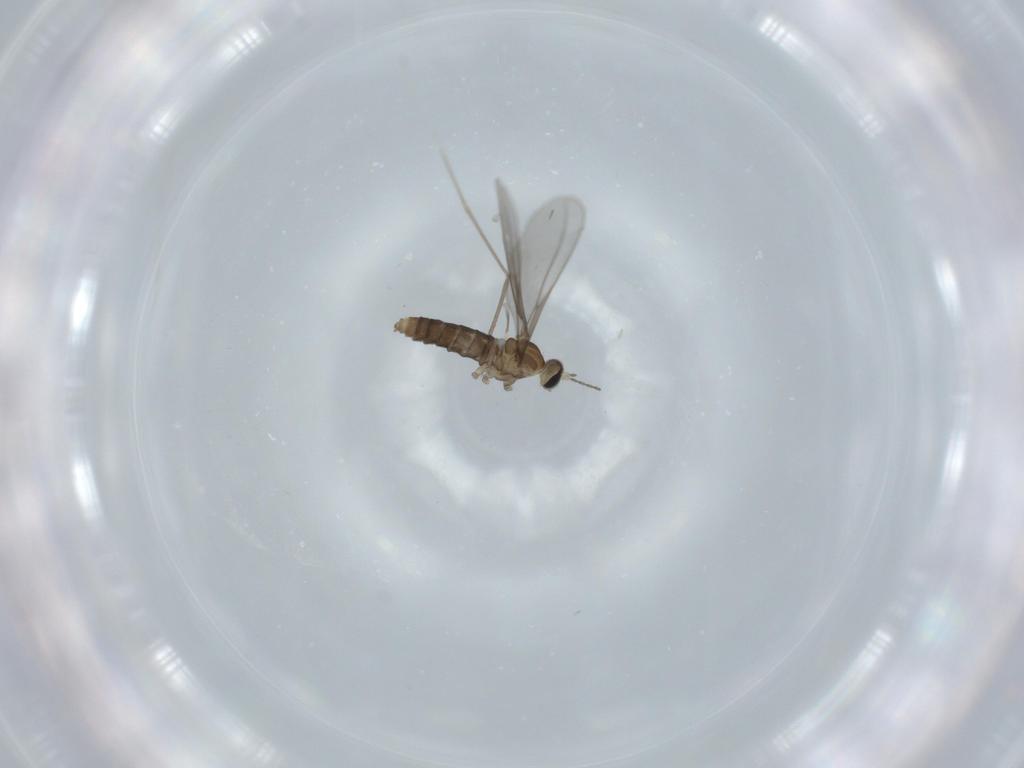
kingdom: Animalia
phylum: Arthropoda
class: Insecta
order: Diptera
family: Cecidomyiidae
